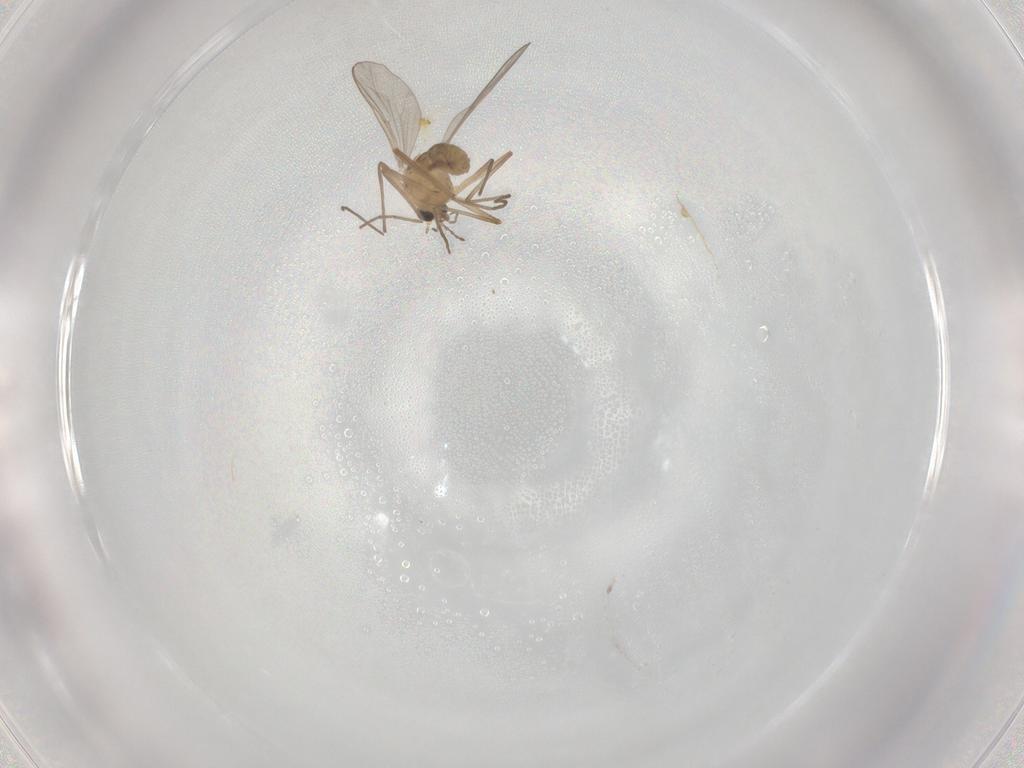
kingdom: Animalia
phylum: Arthropoda
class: Insecta
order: Diptera
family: Chironomidae
